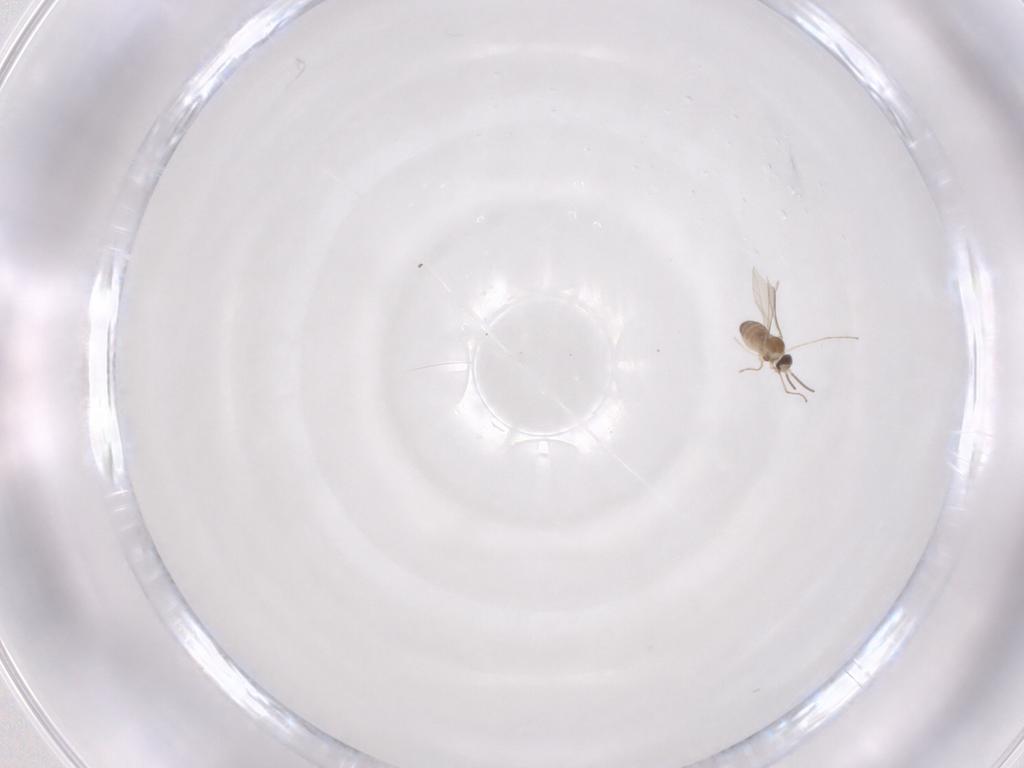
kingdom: Animalia
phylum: Arthropoda
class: Insecta
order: Diptera
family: Cecidomyiidae
